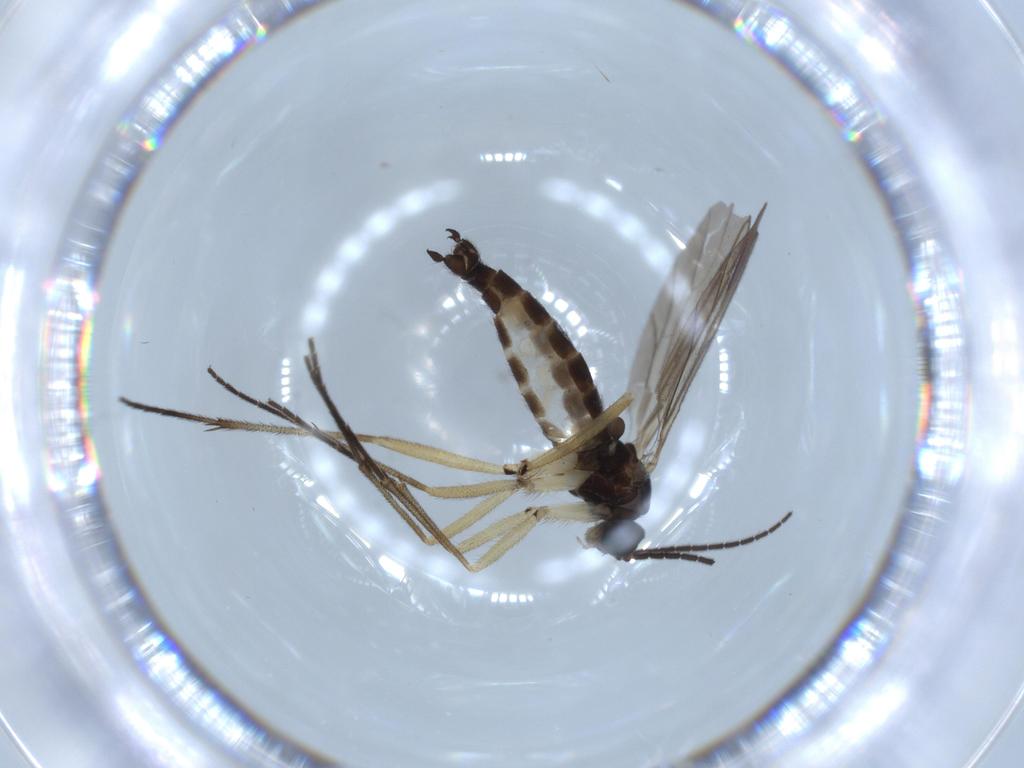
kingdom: Animalia
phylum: Arthropoda
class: Insecta
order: Diptera
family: Sciaridae
